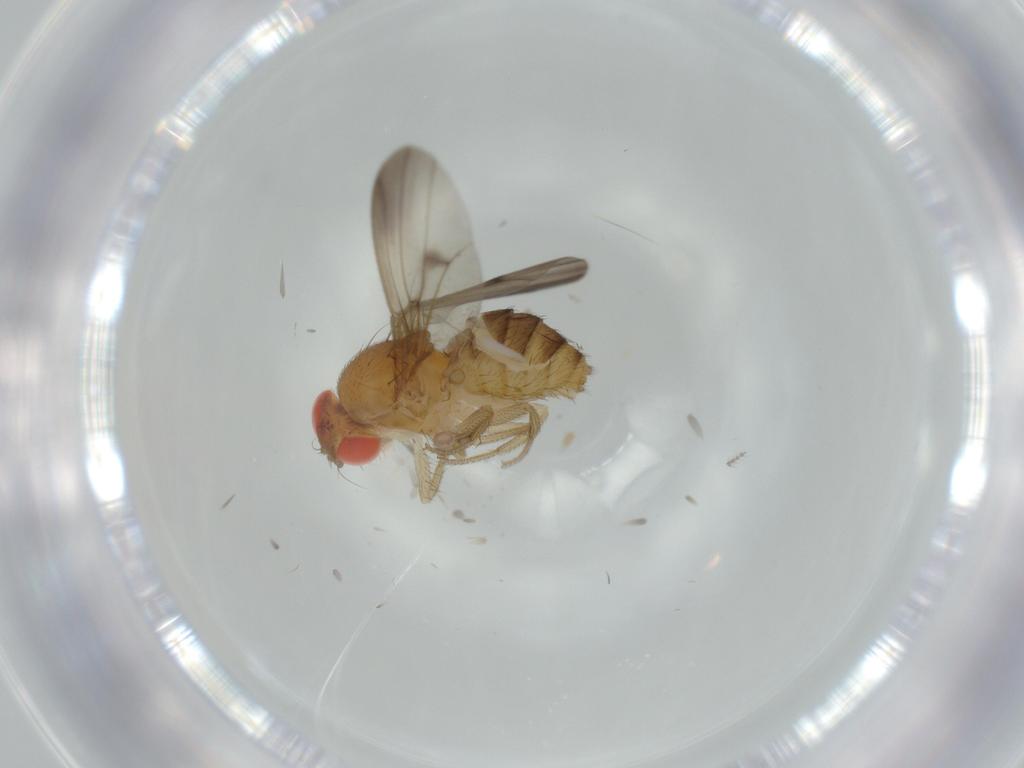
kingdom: Animalia
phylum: Arthropoda
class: Insecta
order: Diptera
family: Drosophilidae
